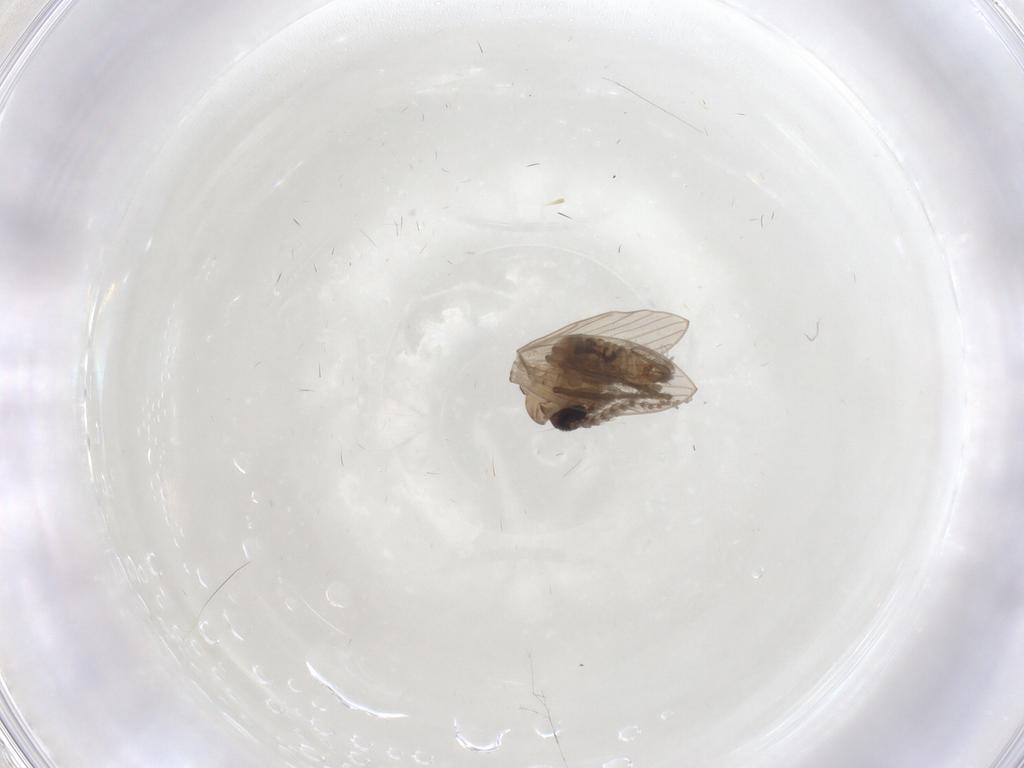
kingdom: Animalia
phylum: Arthropoda
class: Insecta
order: Diptera
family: Psychodidae
